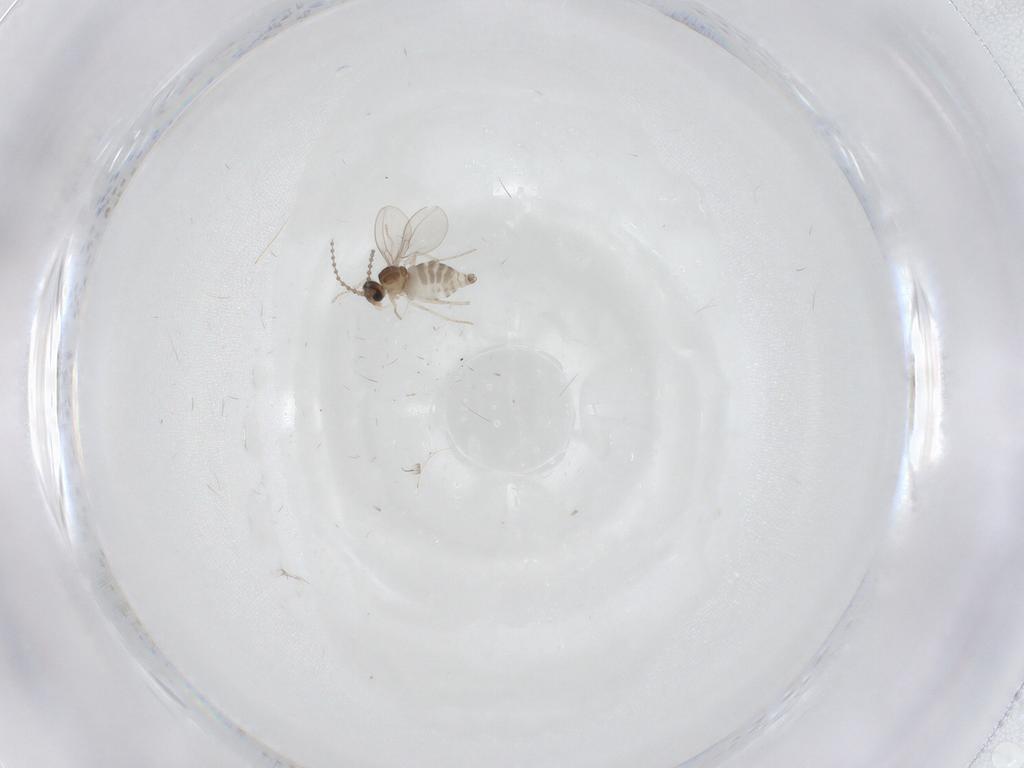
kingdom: Animalia
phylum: Arthropoda
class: Insecta
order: Diptera
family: Cecidomyiidae
